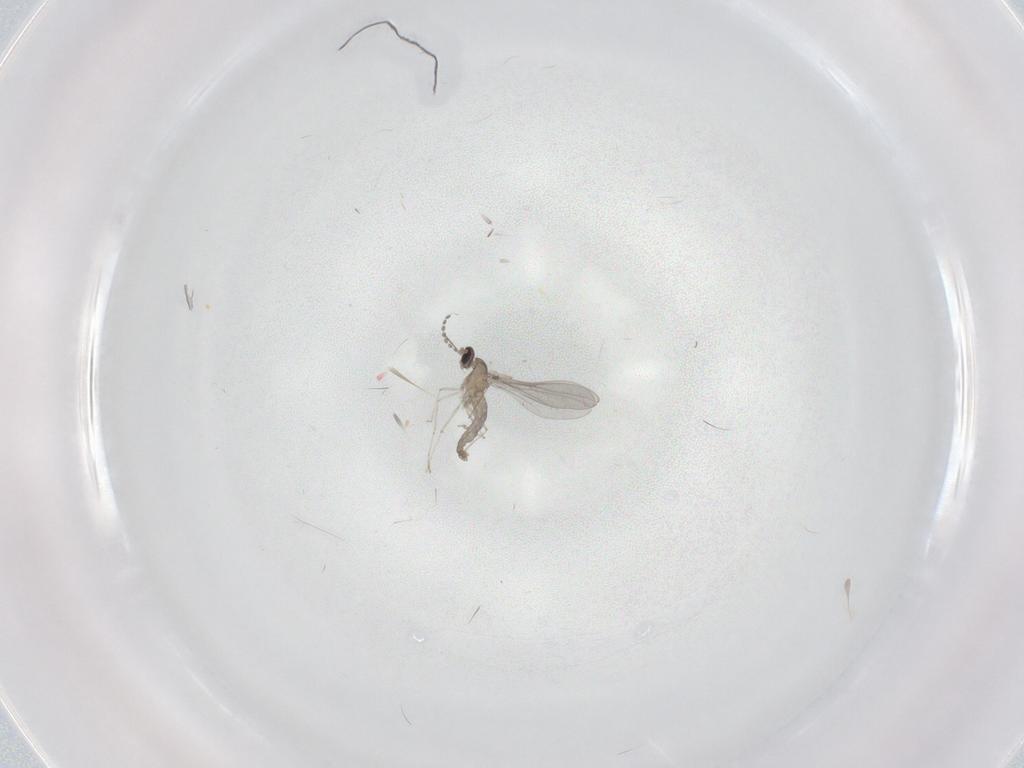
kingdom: Animalia
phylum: Arthropoda
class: Insecta
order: Diptera
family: Cecidomyiidae
